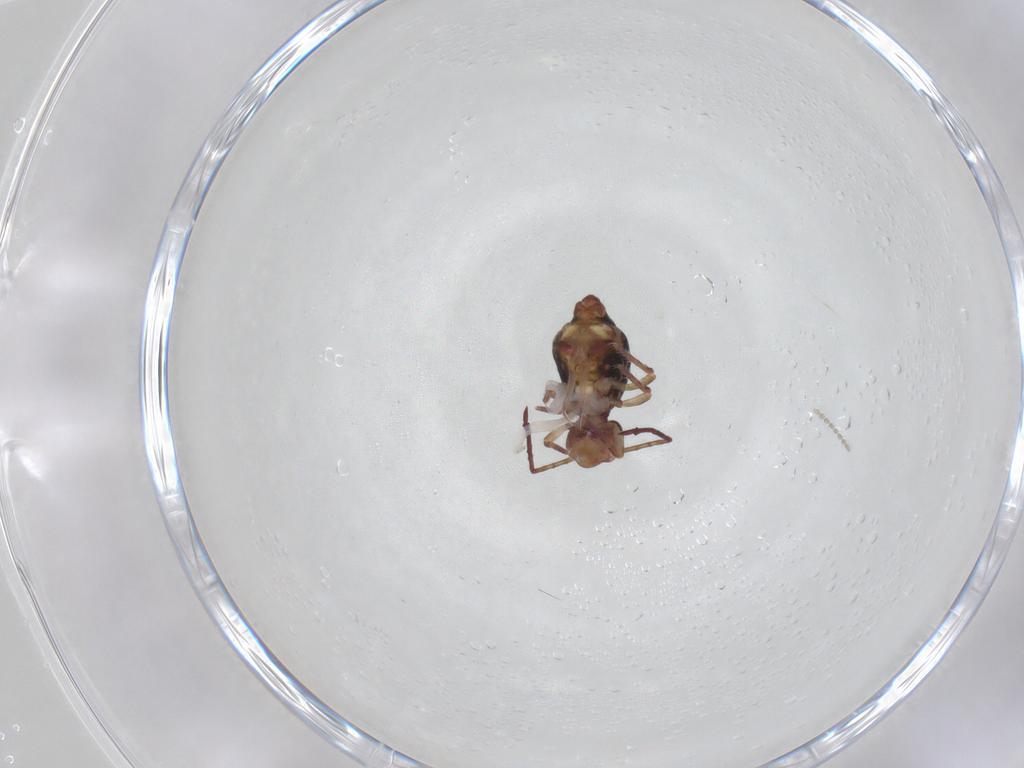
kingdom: Animalia
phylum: Arthropoda
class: Collembola
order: Symphypleona
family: Dicyrtomidae
